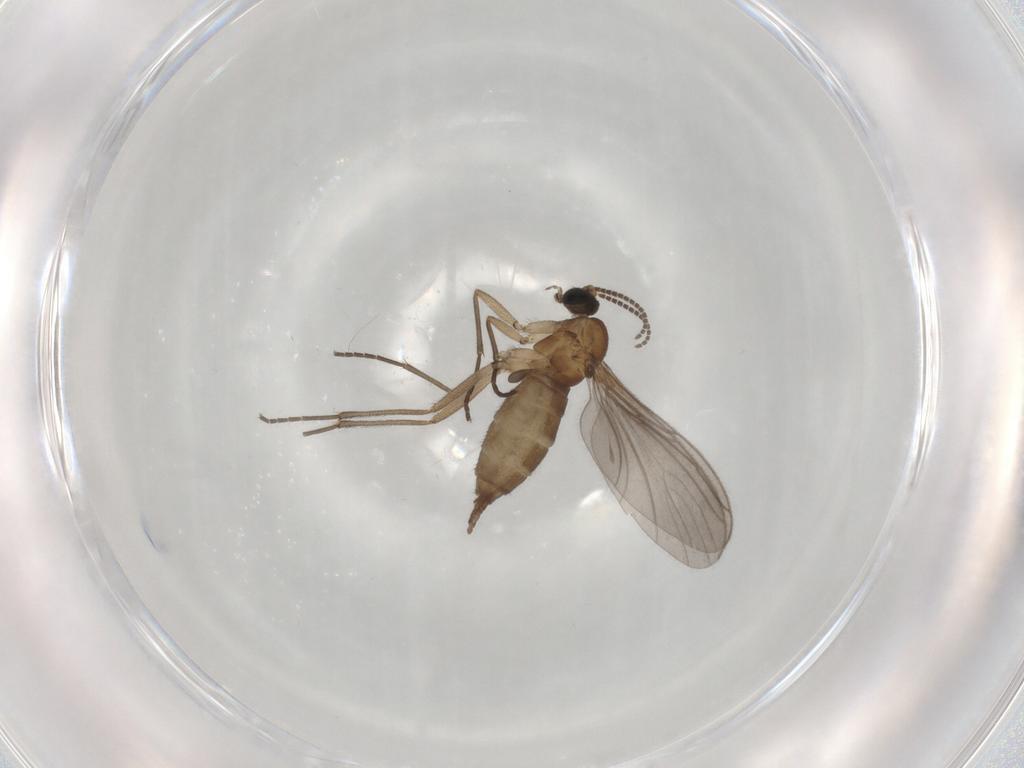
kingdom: Animalia
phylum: Arthropoda
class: Insecta
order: Diptera
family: Sciaridae
